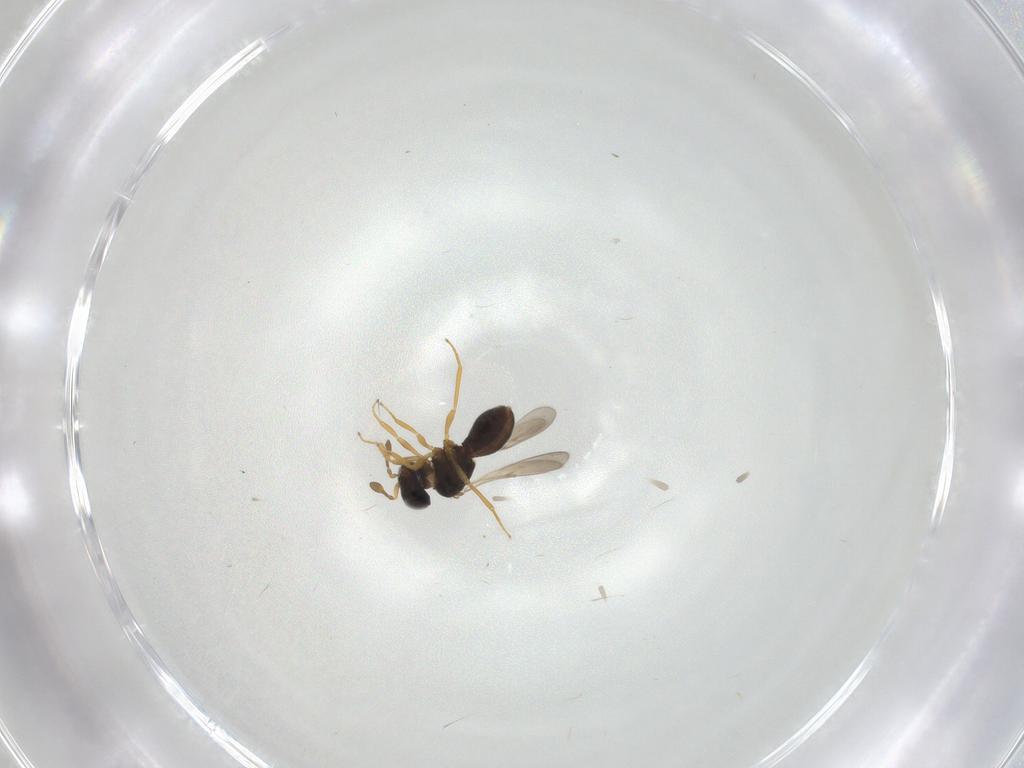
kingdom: Animalia
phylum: Arthropoda
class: Insecta
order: Hymenoptera
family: Scelionidae
